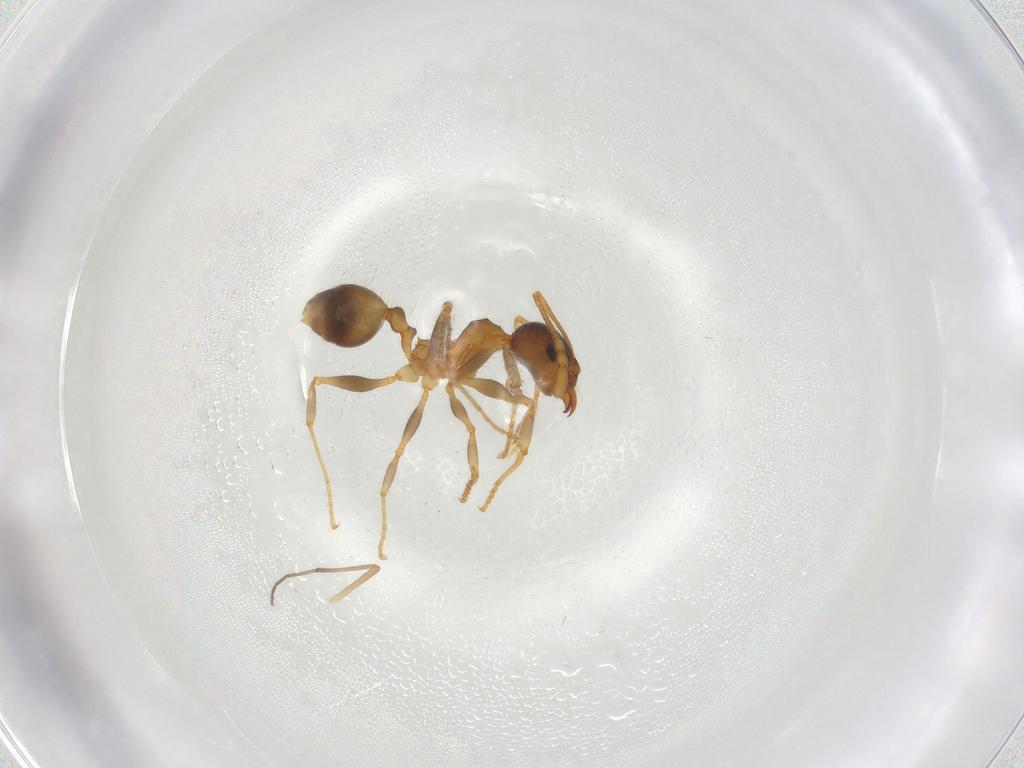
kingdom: Animalia
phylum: Arthropoda
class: Insecta
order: Hymenoptera
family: Formicidae
